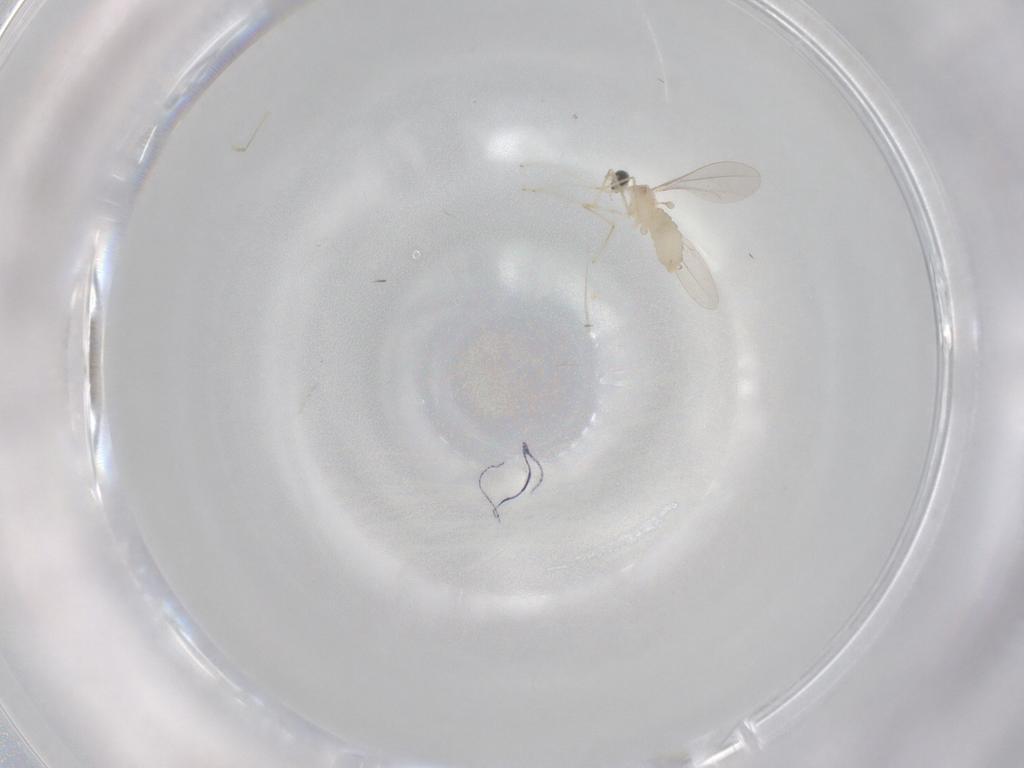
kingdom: Animalia
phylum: Arthropoda
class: Insecta
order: Diptera
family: Cecidomyiidae
